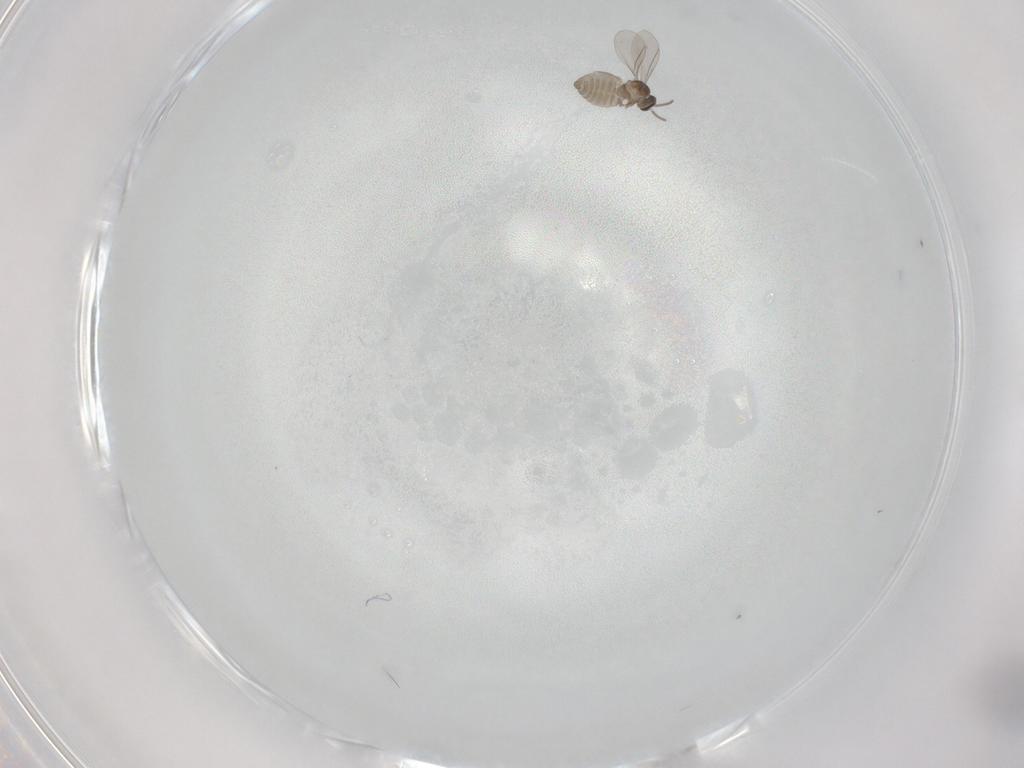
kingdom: Animalia
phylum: Arthropoda
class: Insecta
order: Diptera
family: Cecidomyiidae
